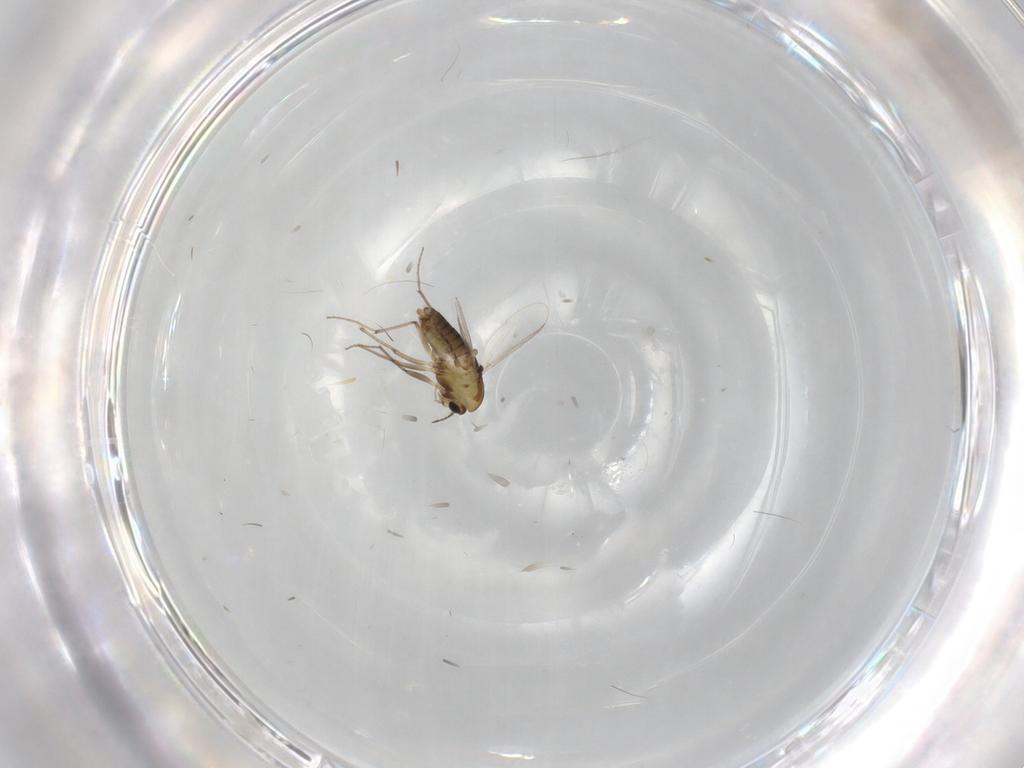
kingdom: Animalia
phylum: Arthropoda
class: Insecta
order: Diptera
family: Chironomidae
